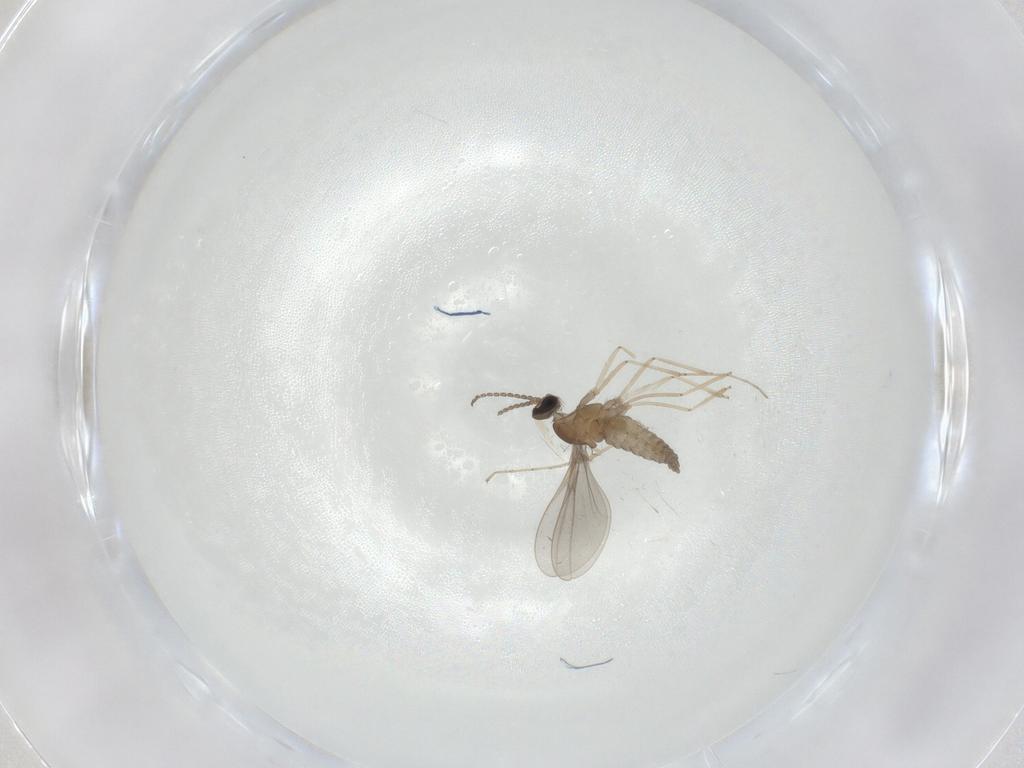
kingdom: Animalia
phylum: Arthropoda
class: Insecta
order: Diptera
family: Cecidomyiidae
